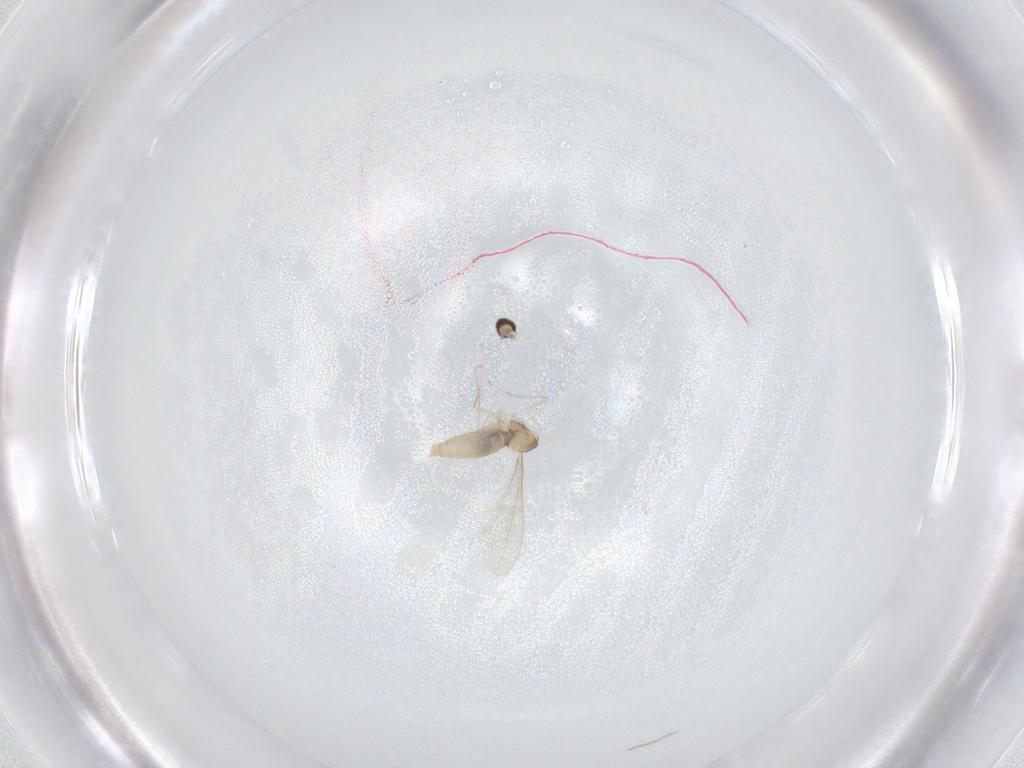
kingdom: Animalia
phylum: Arthropoda
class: Insecta
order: Diptera
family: Cecidomyiidae
